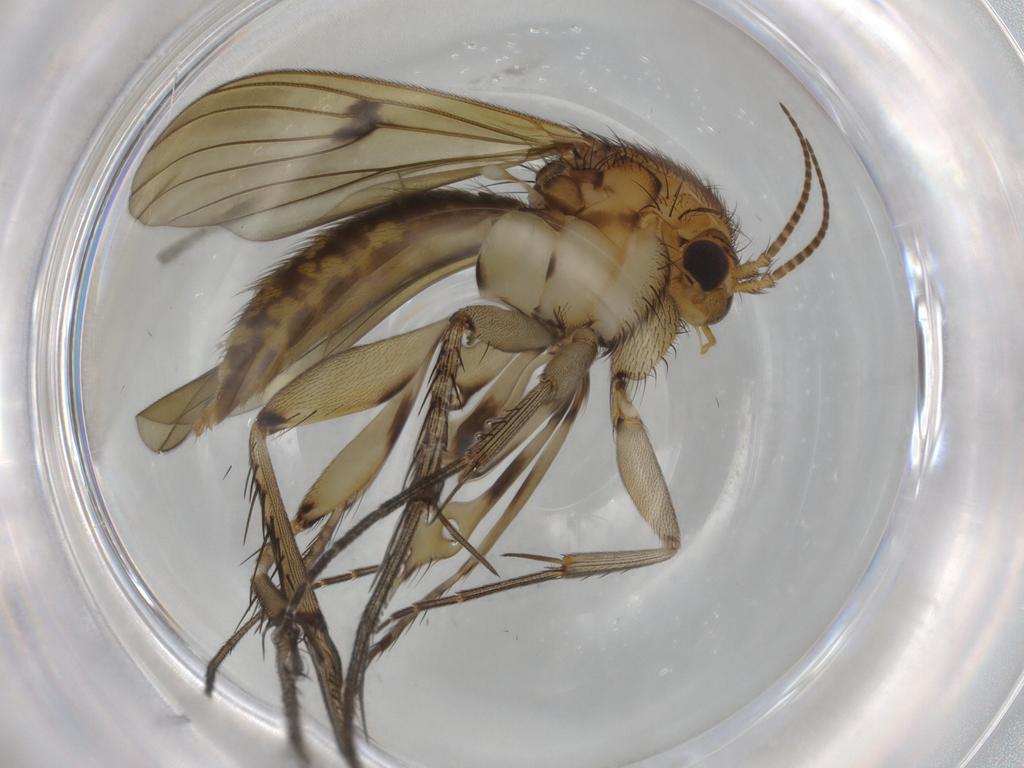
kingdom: Animalia
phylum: Arthropoda
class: Insecta
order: Diptera
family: Chironomidae
